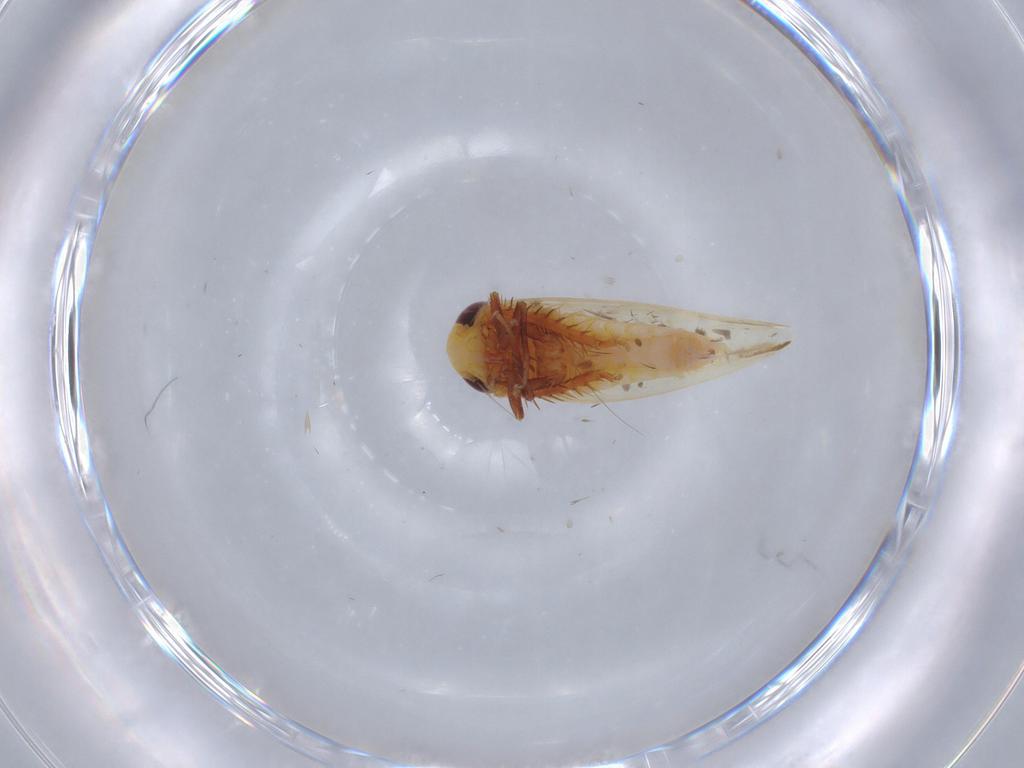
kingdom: Animalia
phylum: Arthropoda
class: Insecta
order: Hemiptera
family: Cicadellidae
